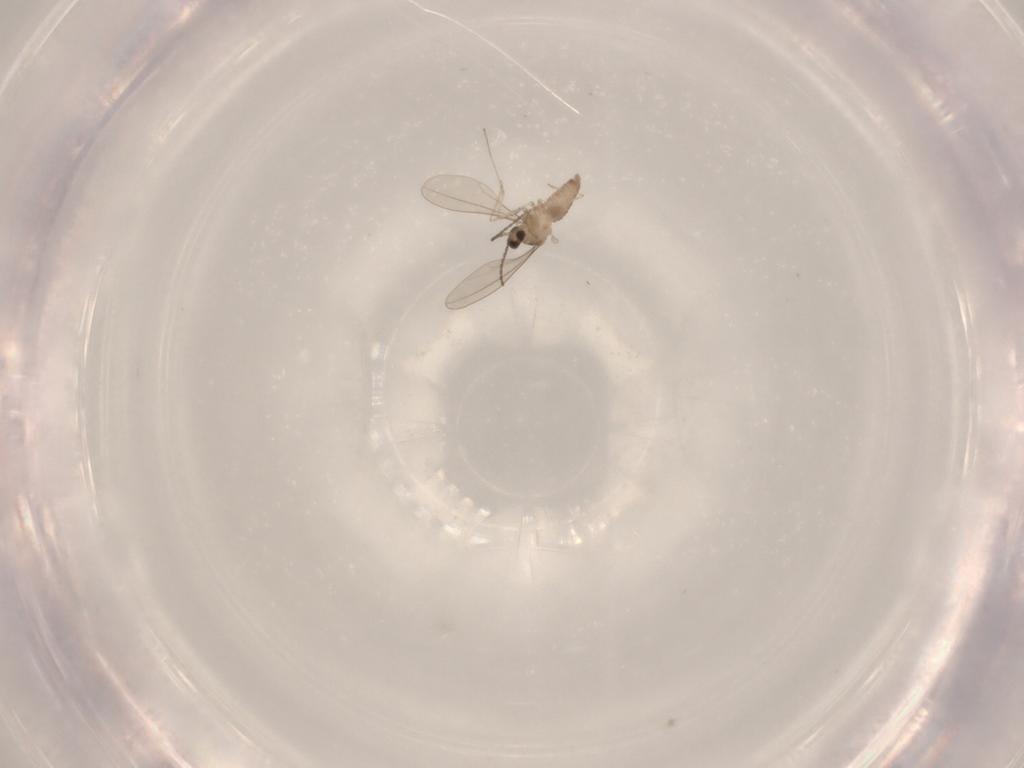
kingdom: Animalia
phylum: Arthropoda
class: Insecta
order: Diptera
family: Cecidomyiidae
